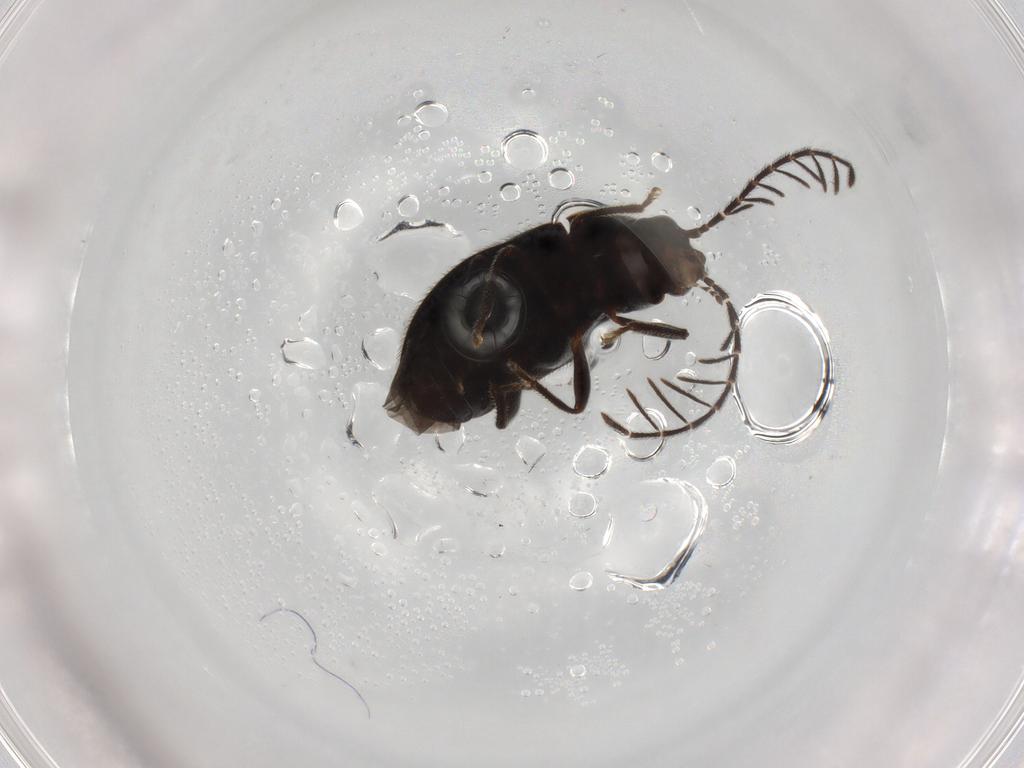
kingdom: Animalia
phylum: Arthropoda
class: Insecta
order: Coleoptera
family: Ptilodactylidae
